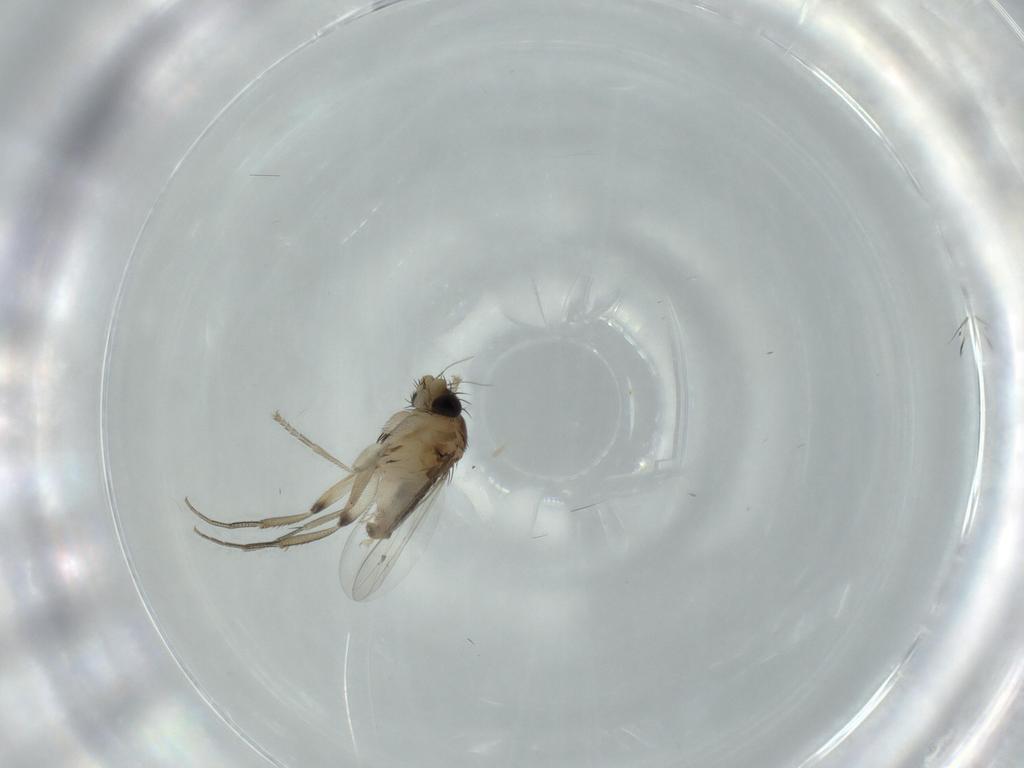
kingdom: Animalia
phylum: Arthropoda
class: Insecta
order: Diptera
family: Phoridae
